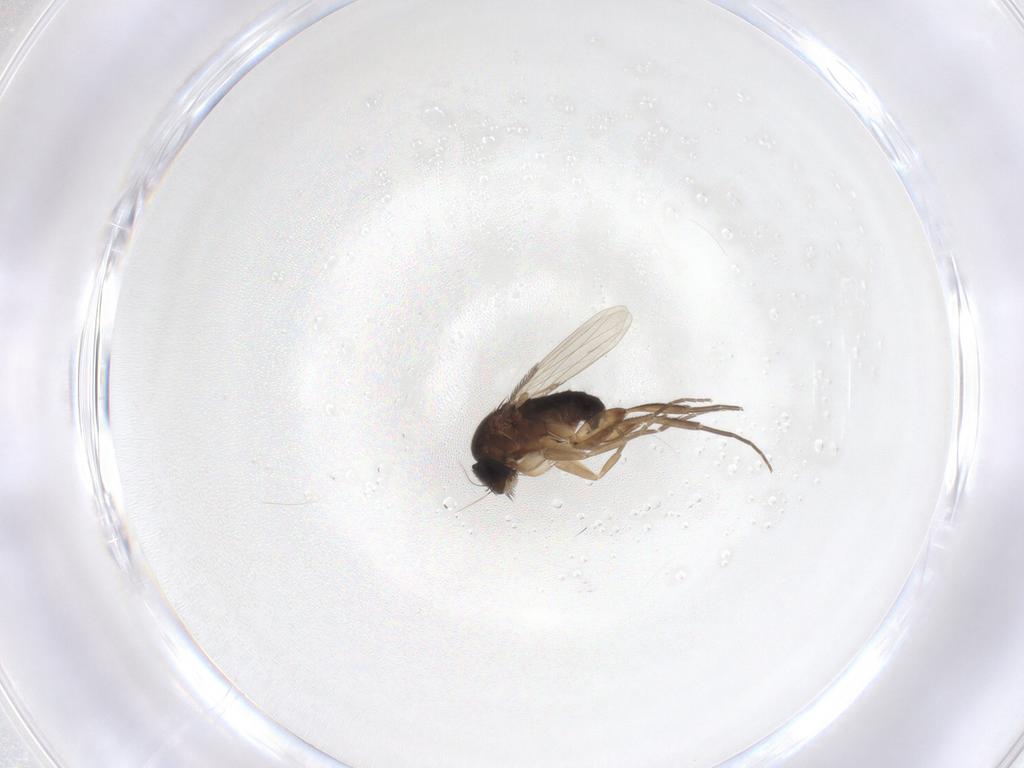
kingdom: Animalia
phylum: Arthropoda
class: Insecta
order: Diptera
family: Phoridae
